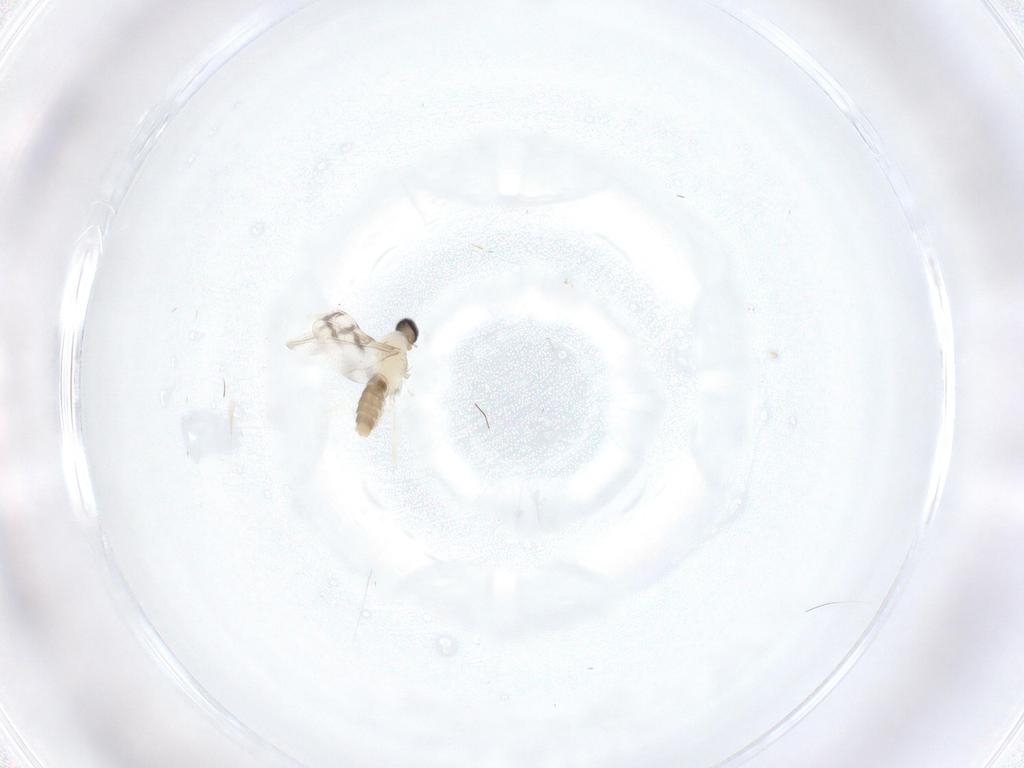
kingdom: Animalia
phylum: Arthropoda
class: Insecta
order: Diptera
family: Cecidomyiidae
